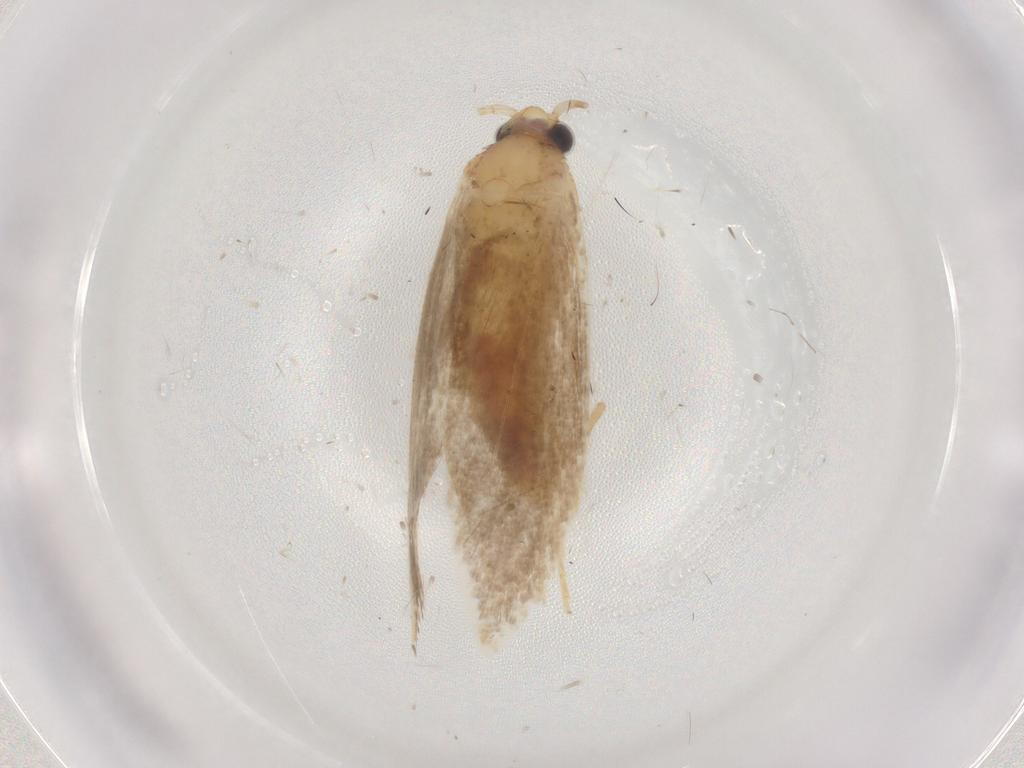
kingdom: Animalia
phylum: Arthropoda
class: Insecta
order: Lepidoptera
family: Tineidae
